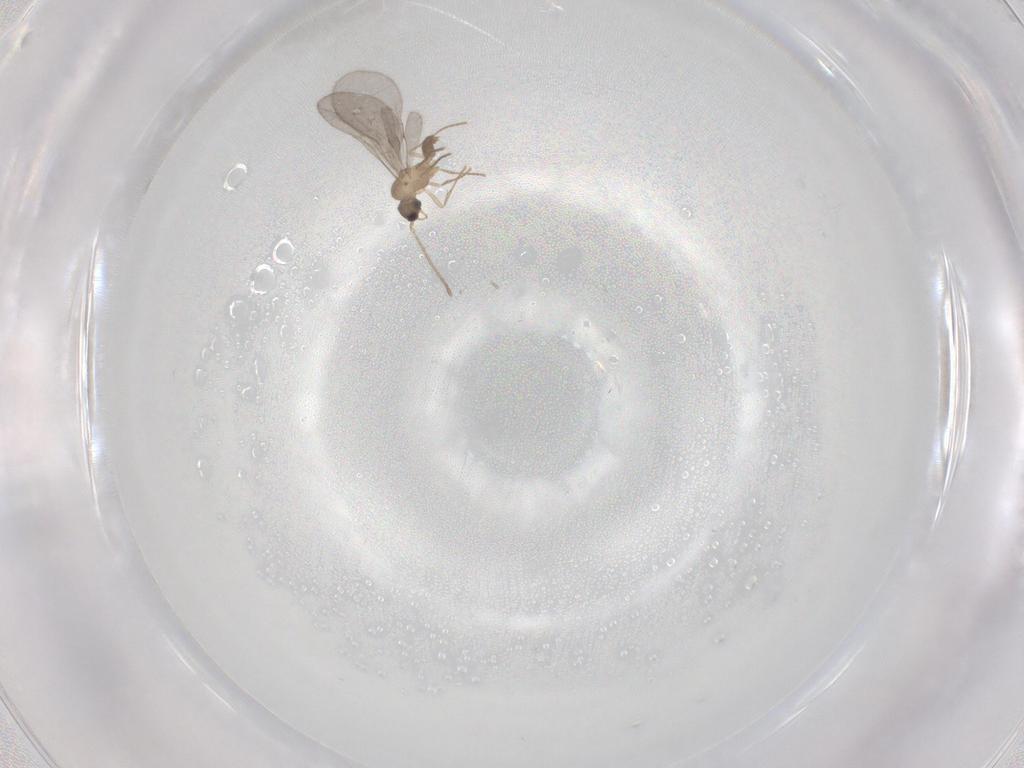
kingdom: Animalia
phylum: Arthropoda
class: Insecta
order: Hymenoptera
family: Formicidae
